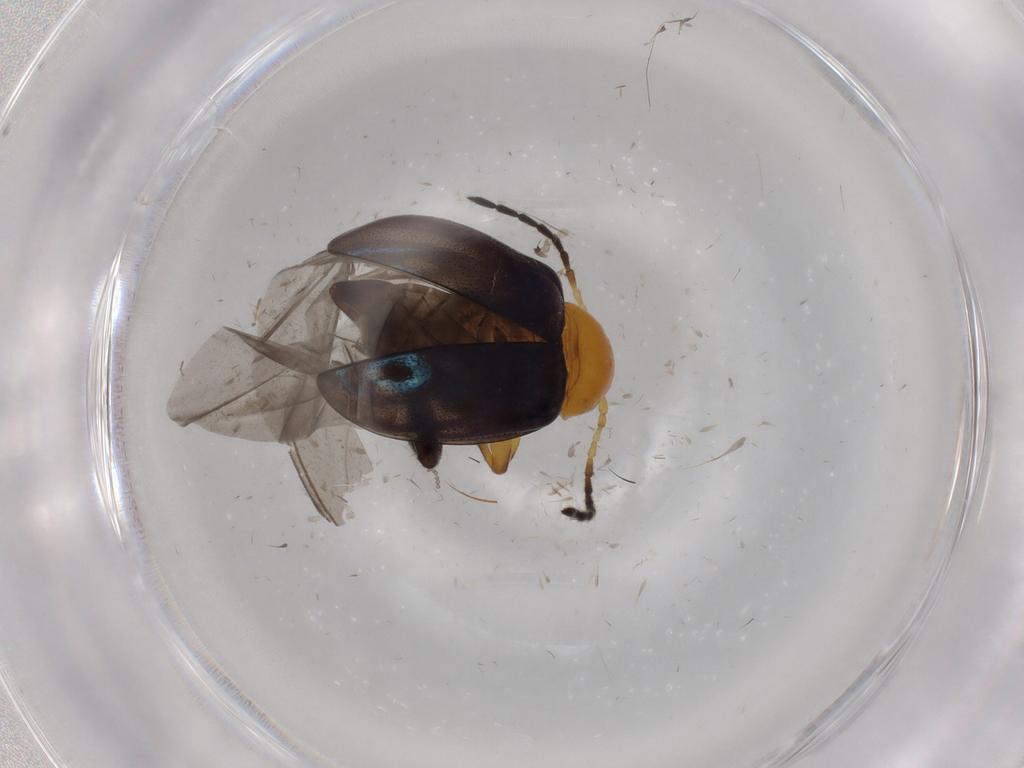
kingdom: Animalia
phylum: Arthropoda
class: Insecta
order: Coleoptera
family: Chrysomelidae
